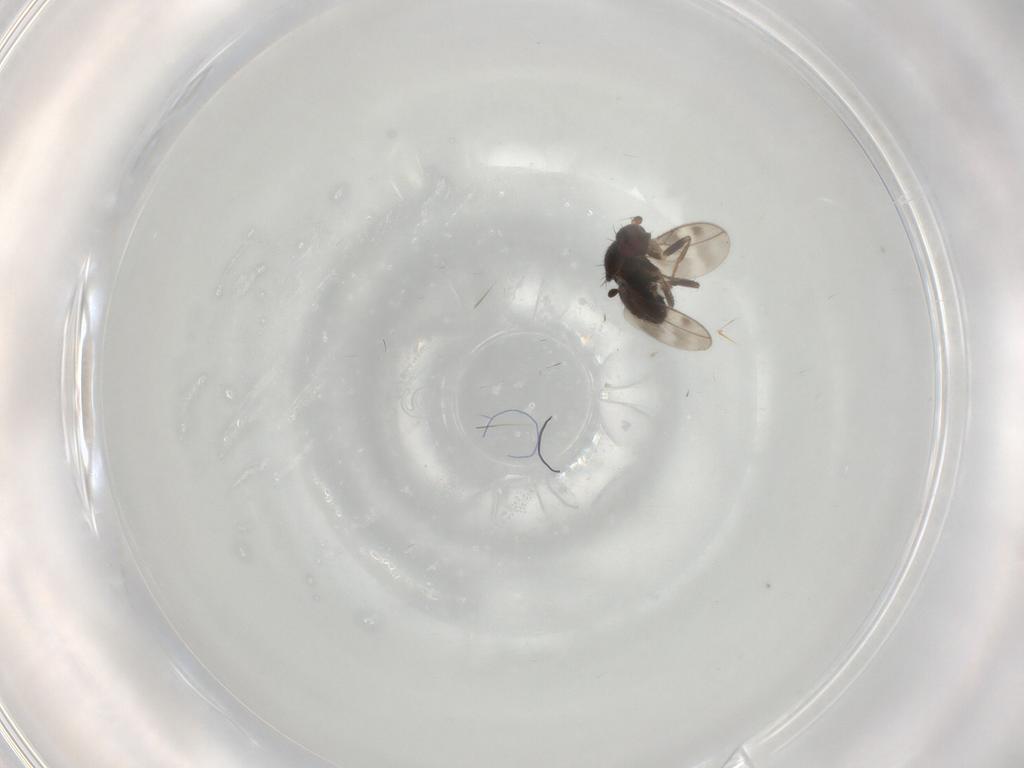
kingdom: Animalia
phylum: Arthropoda
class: Insecta
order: Diptera
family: Sphaeroceridae
